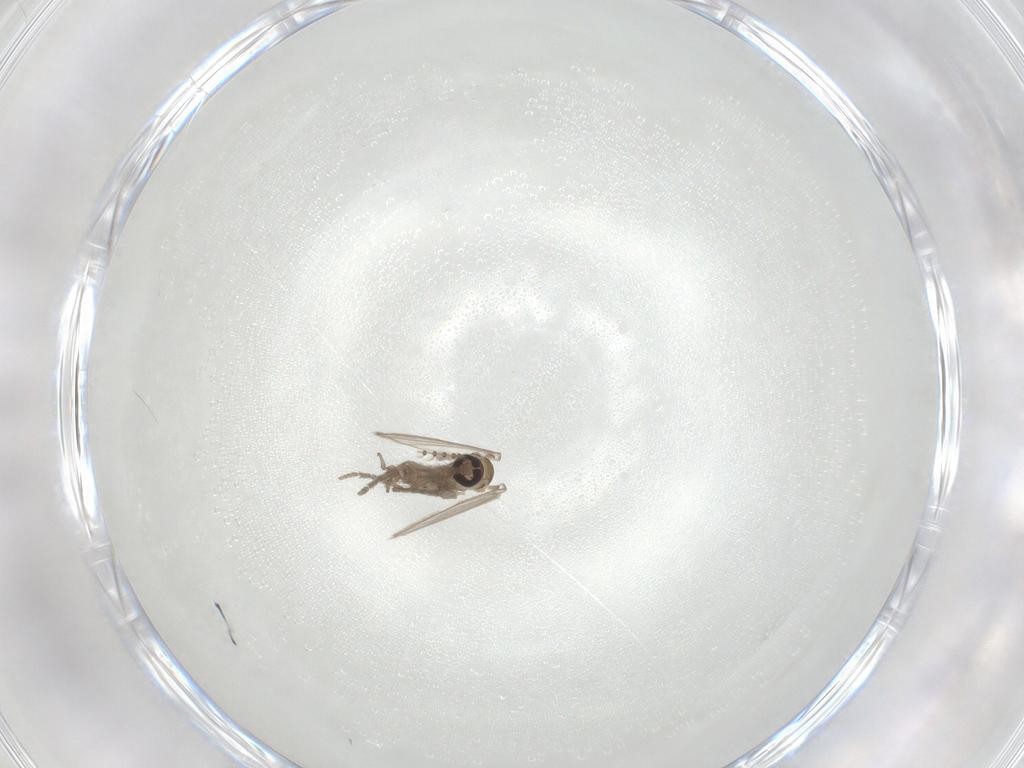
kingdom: Animalia
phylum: Arthropoda
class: Insecta
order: Diptera
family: Psychodidae
